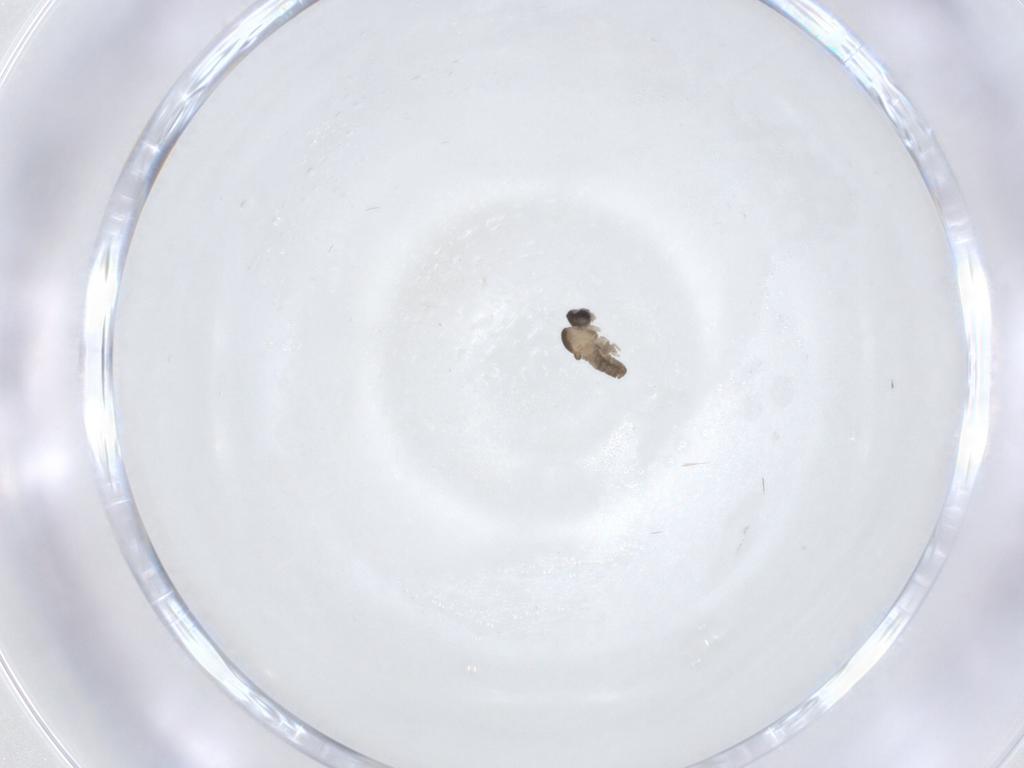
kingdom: Animalia
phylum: Arthropoda
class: Insecta
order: Diptera
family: Cecidomyiidae
